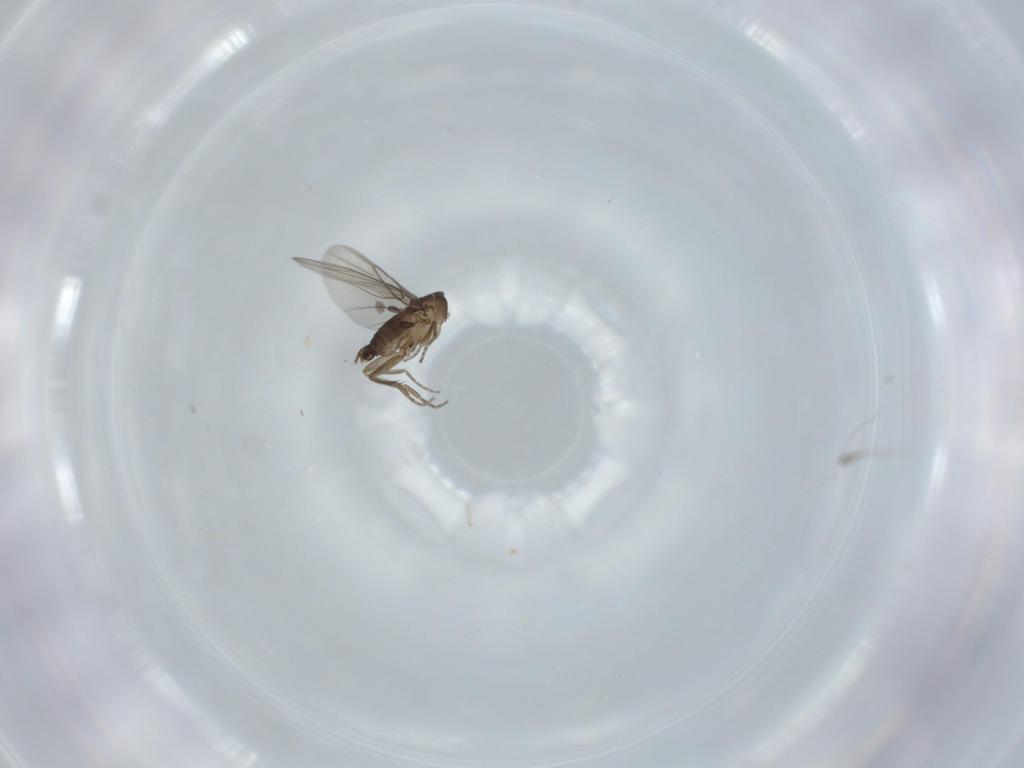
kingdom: Animalia
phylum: Arthropoda
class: Insecta
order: Diptera
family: Phoridae
